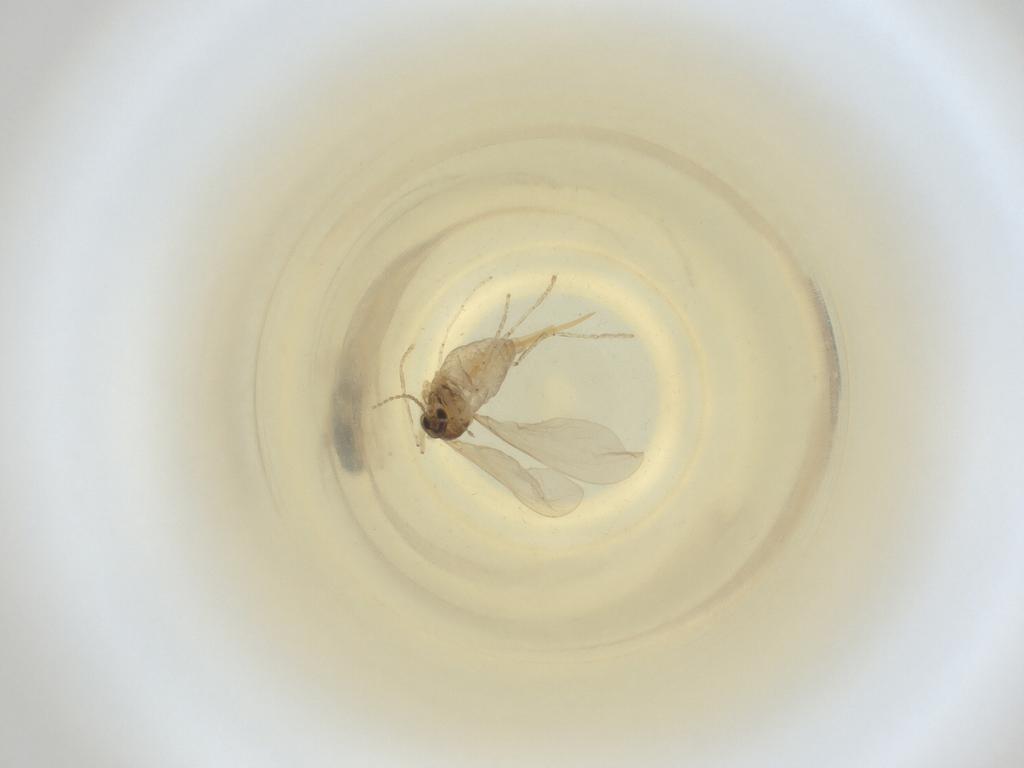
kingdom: Animalia
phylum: Arthropoda
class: Insecta
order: Diptera
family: Cecidomyiidae
